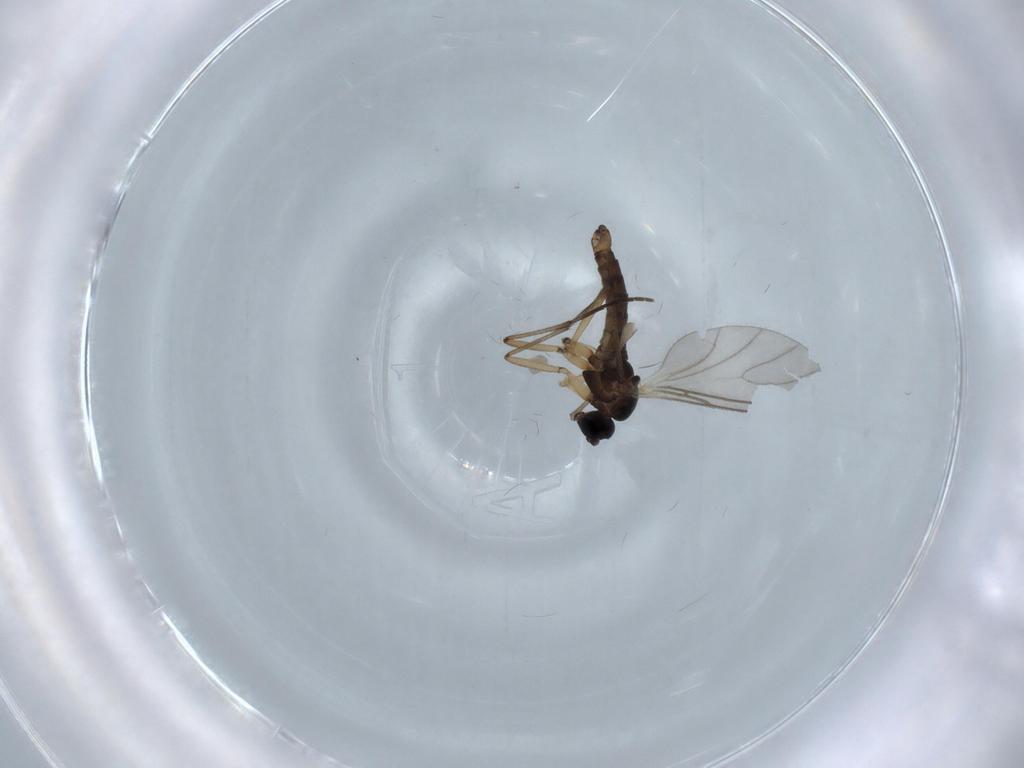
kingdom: Animalia
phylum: Arthropoda
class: Insecta
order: Diptera
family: Sciaridae
